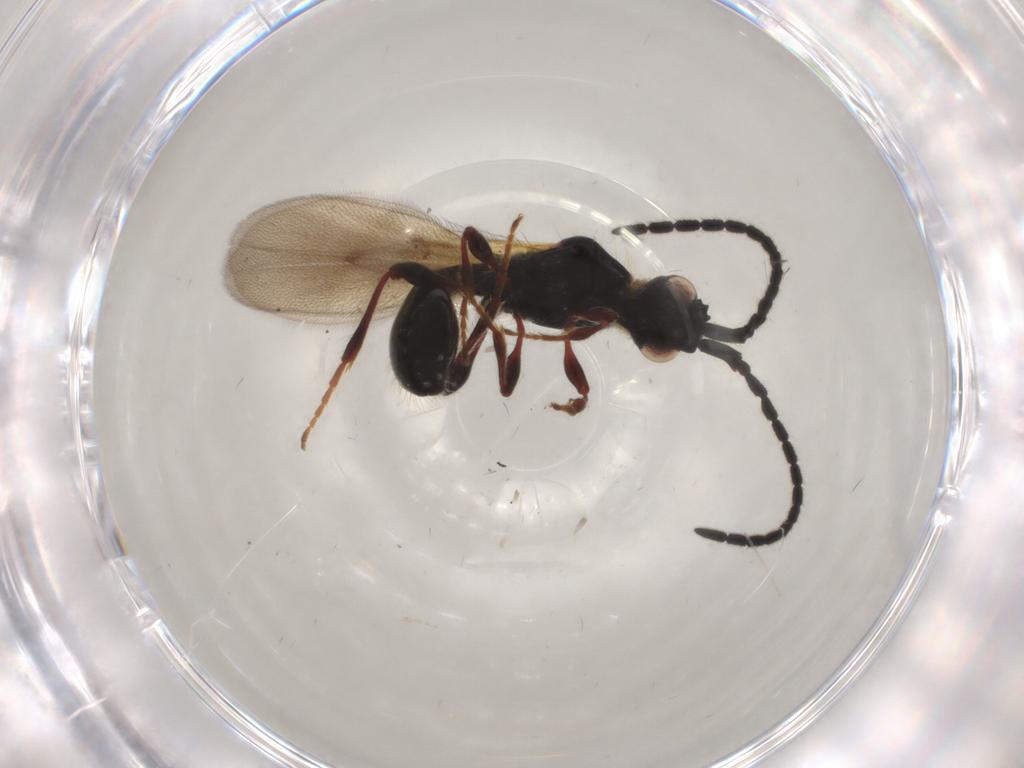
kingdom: Animalia
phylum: Arthropoda
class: Insecta
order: Hymenoptera
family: Diapriidae
